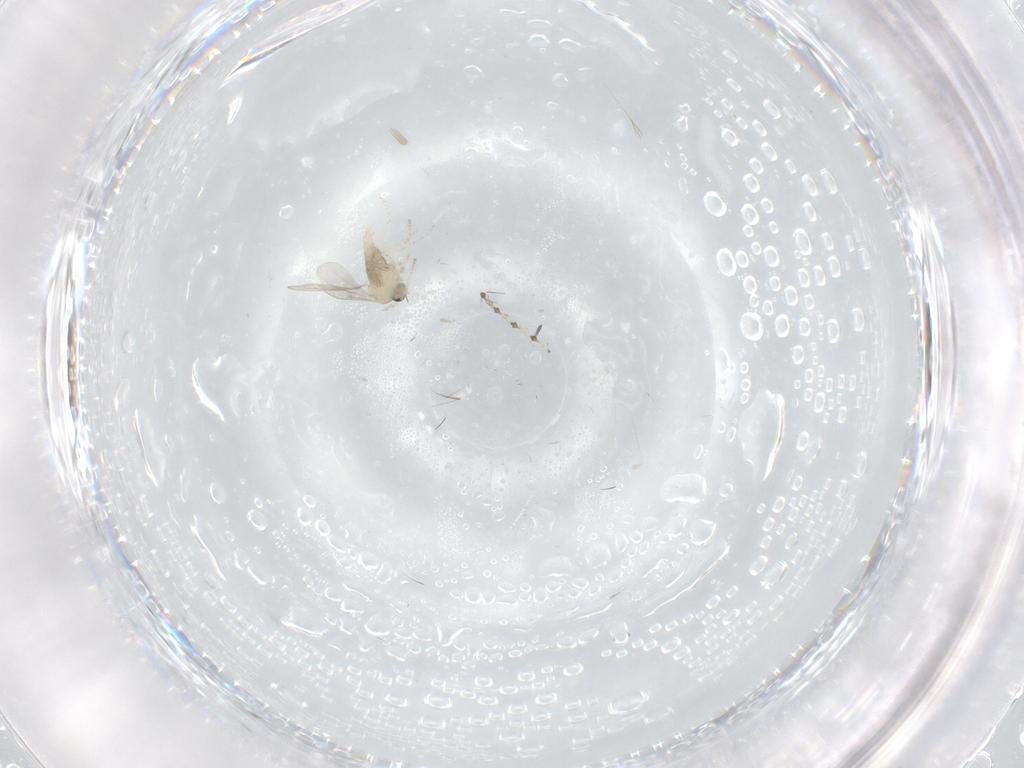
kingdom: Animalia
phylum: Arthropoda
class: Insecta
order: Diptera
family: Cecidomyiidae
